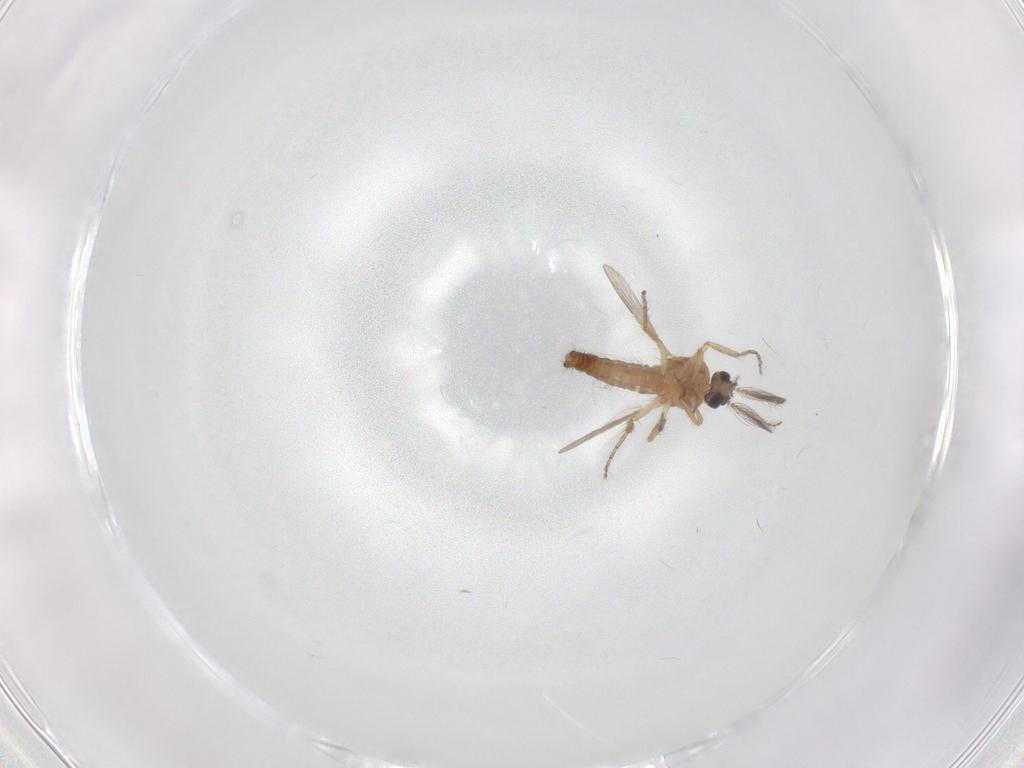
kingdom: Animalia
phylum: Arthropoda
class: Insecta
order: Diptera
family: Ceratopogonidae
